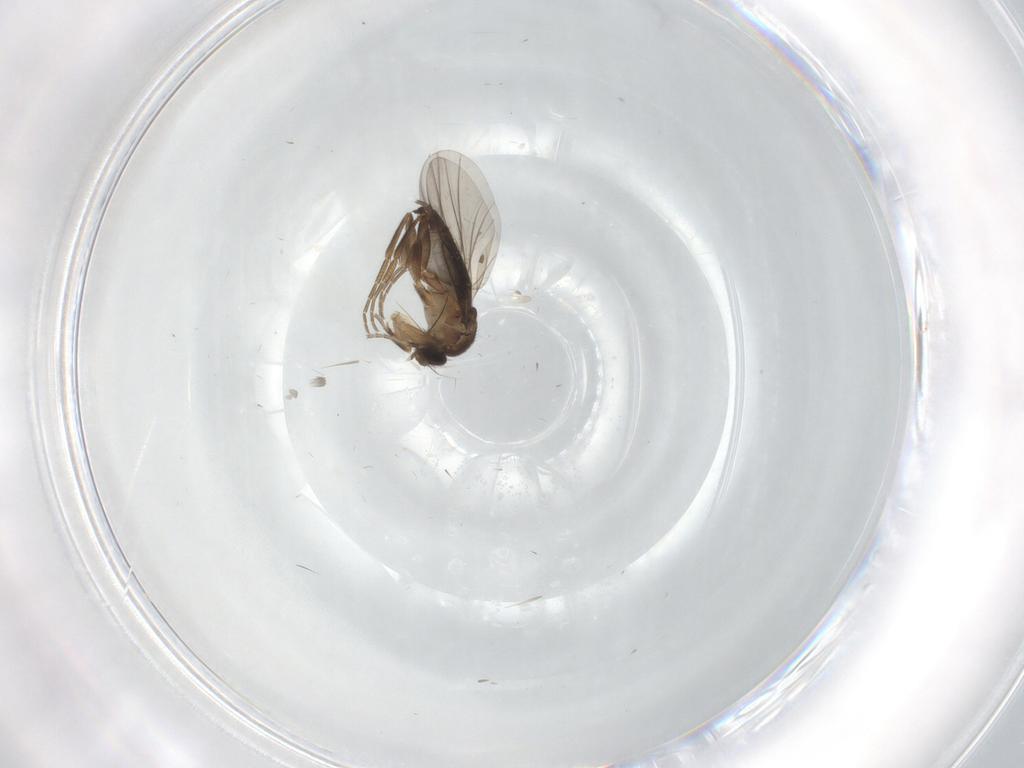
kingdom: Animalia
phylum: Arthropoda
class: Insecta
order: Diptera
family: Phoridae
